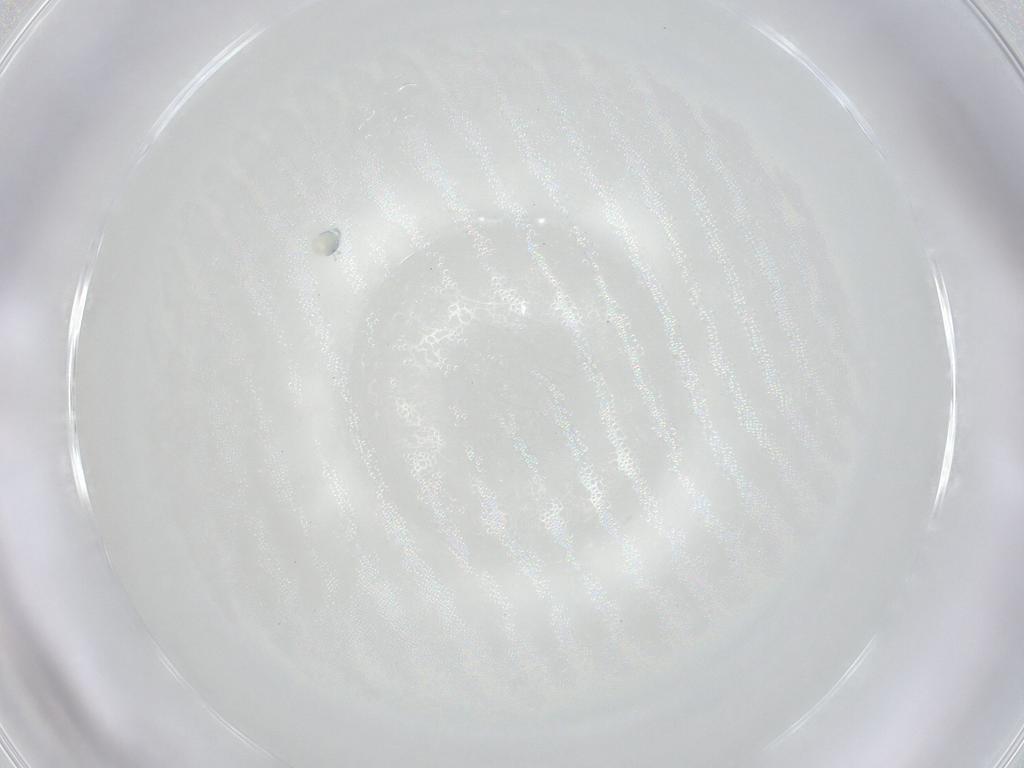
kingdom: Animalia
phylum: Arthropoda
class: Arachnida
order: Trombidiformes
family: Arrenuridae
